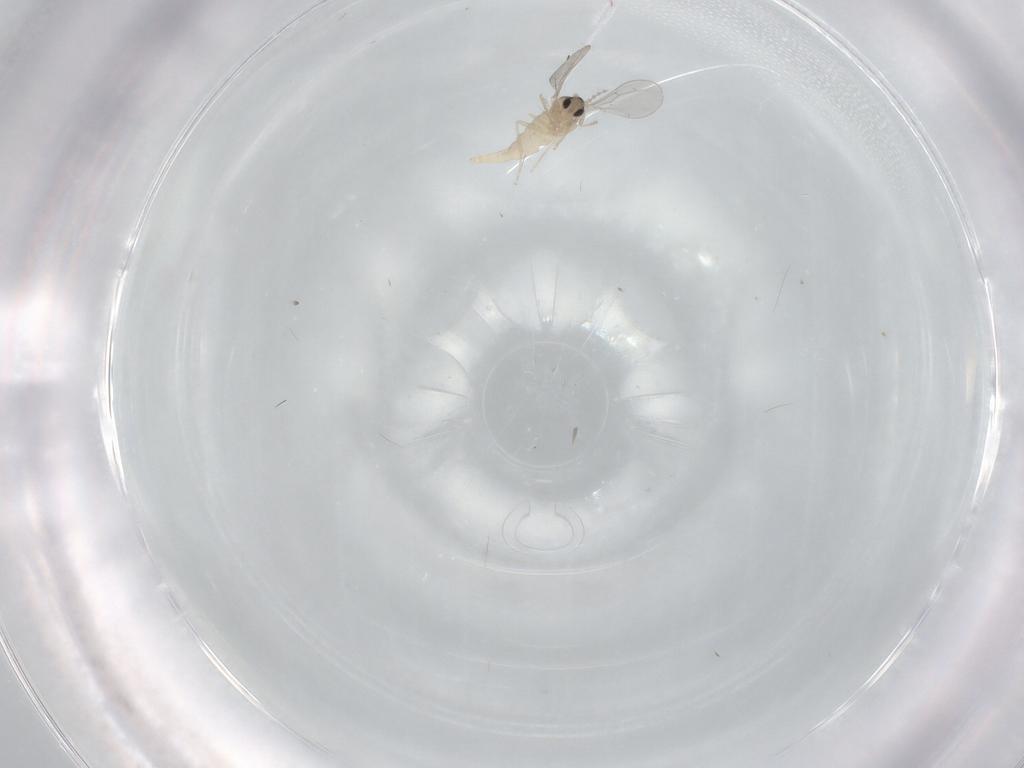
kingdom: Animalia
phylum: Arthropoda
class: Insecta
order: Diptera
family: Cecidomyiidae
